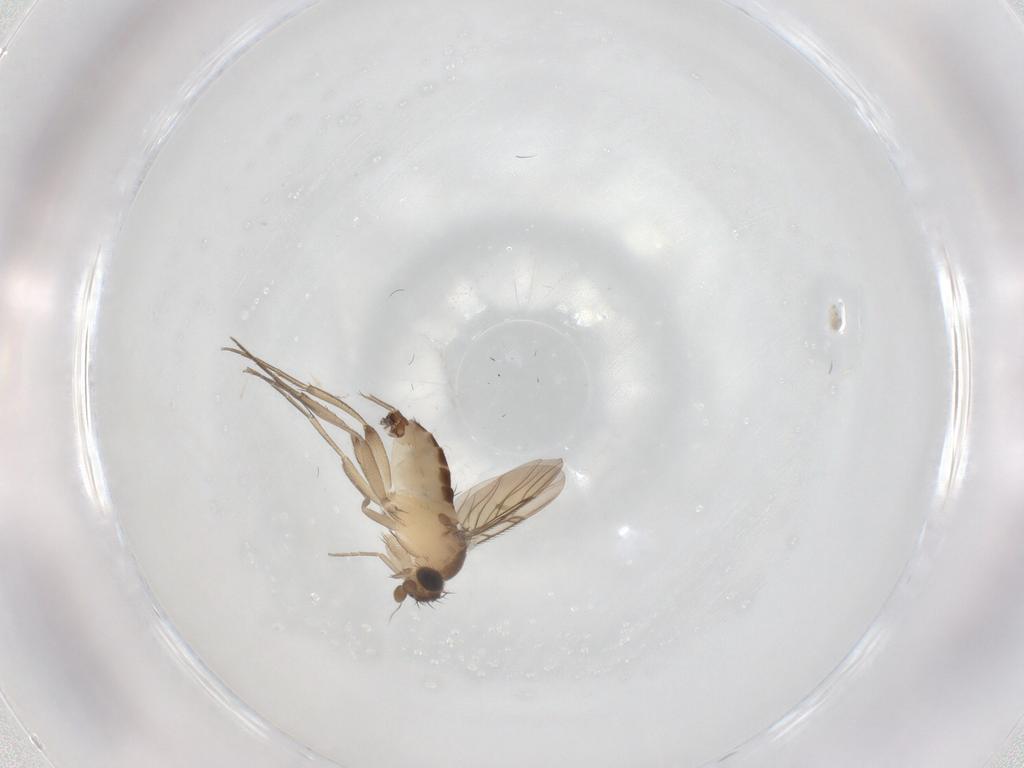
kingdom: Animalia
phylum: Arthropoda
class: Insecta
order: Diptera
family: Phoridae
